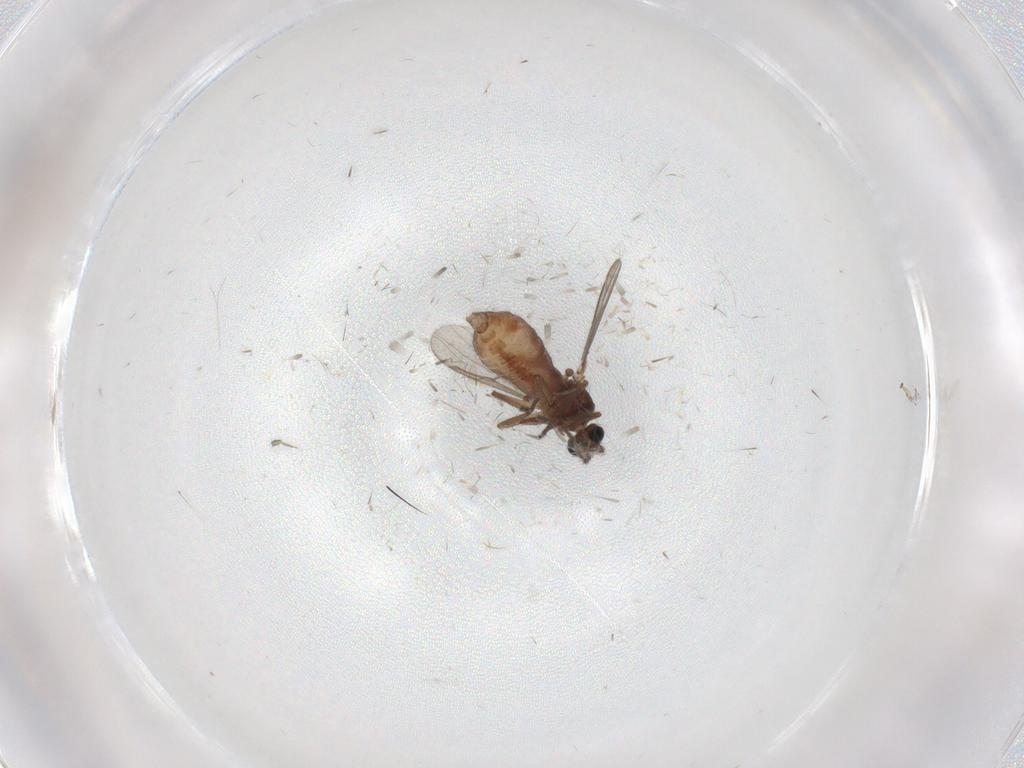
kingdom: Animalia
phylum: Arthropoda
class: Insecta
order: Diptera
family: Ceratopogonidae
